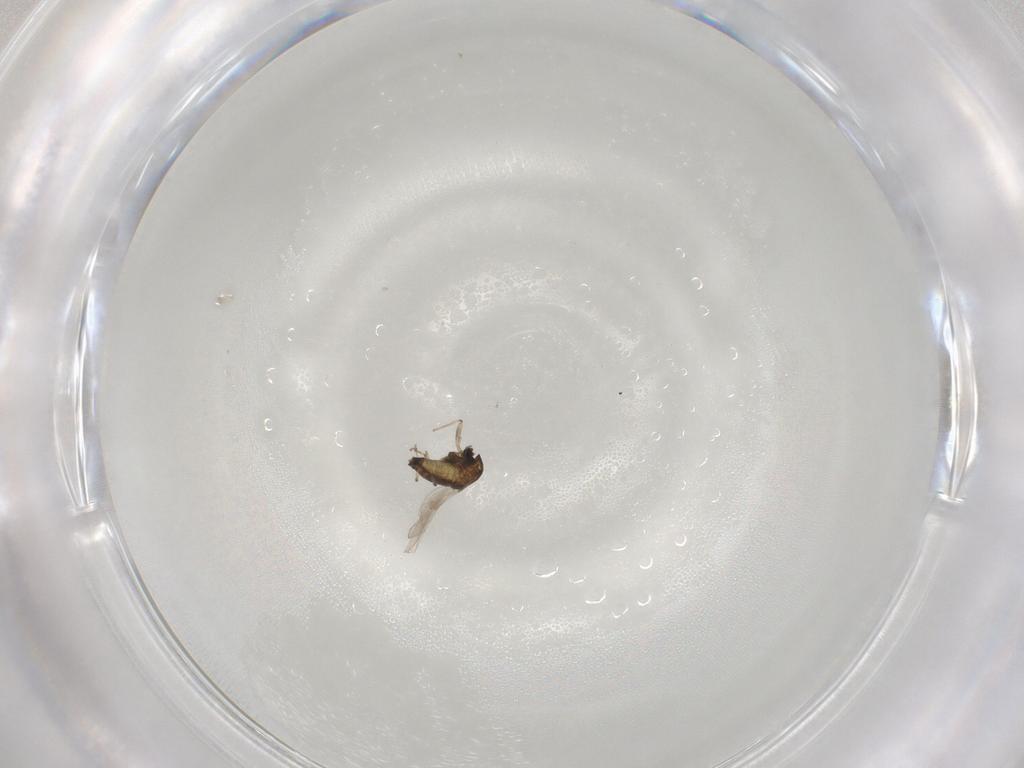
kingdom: Animalia
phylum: Arthropoda
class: Insecta
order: Diptera
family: Chironomidae
